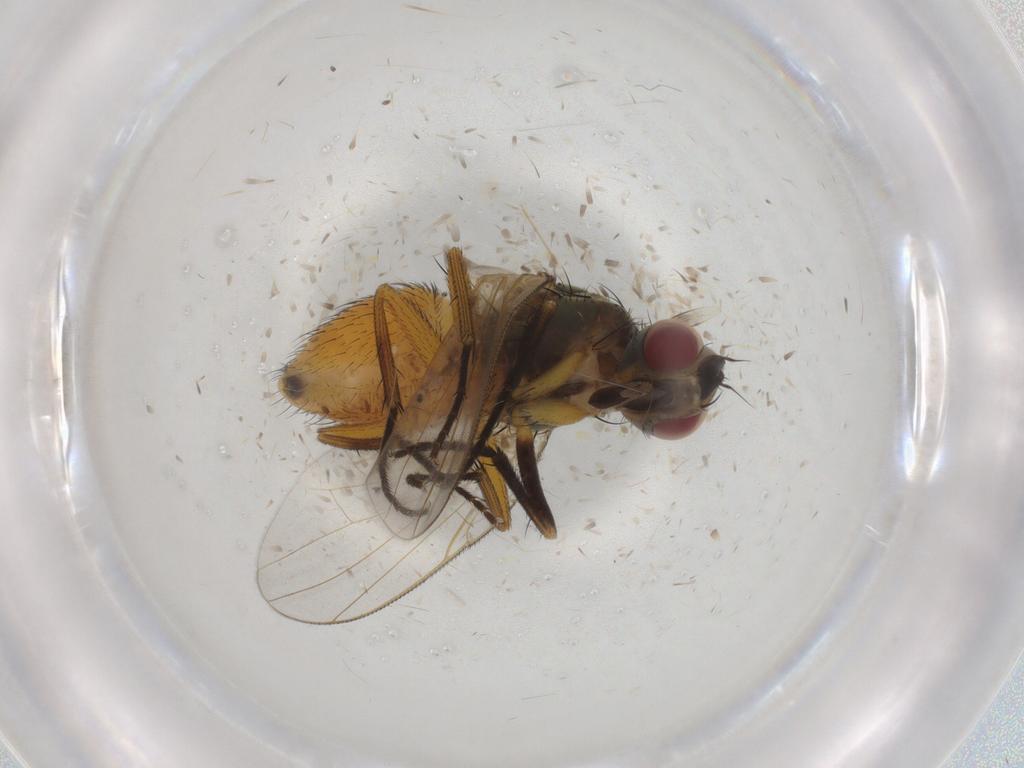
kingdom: Animalia
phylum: Arthropoda
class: Insecta
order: Diptera
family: Muscidae
